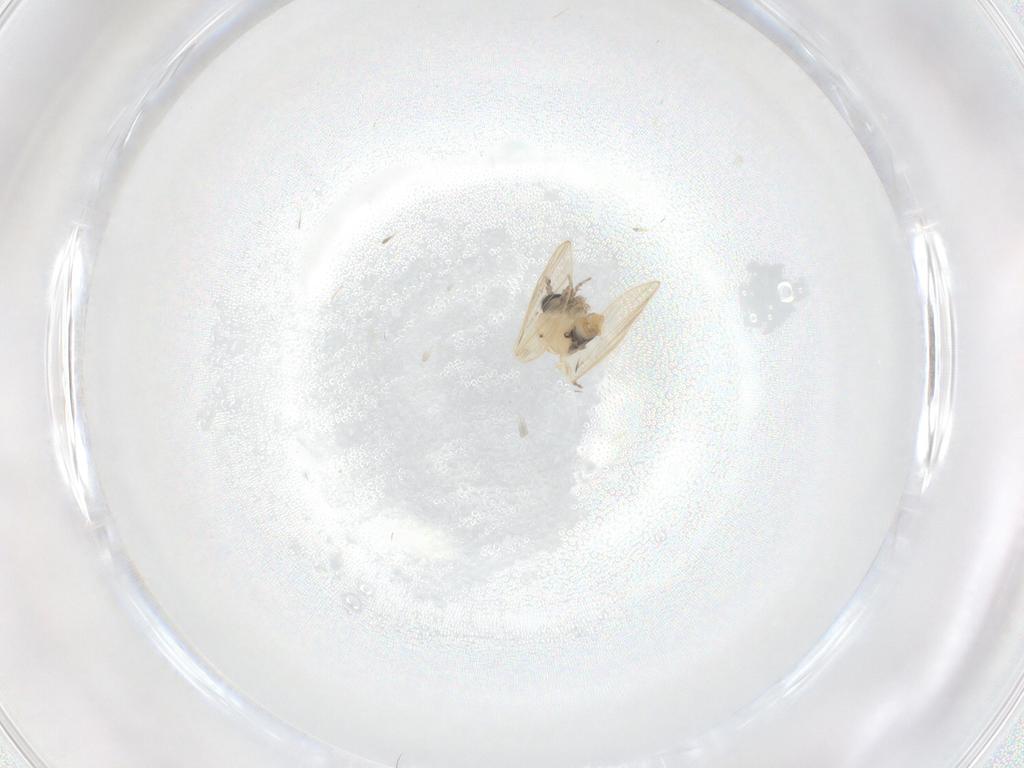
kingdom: Animalia
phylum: Arthropoda
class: Insecta
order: Diptera
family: Psychodidae
